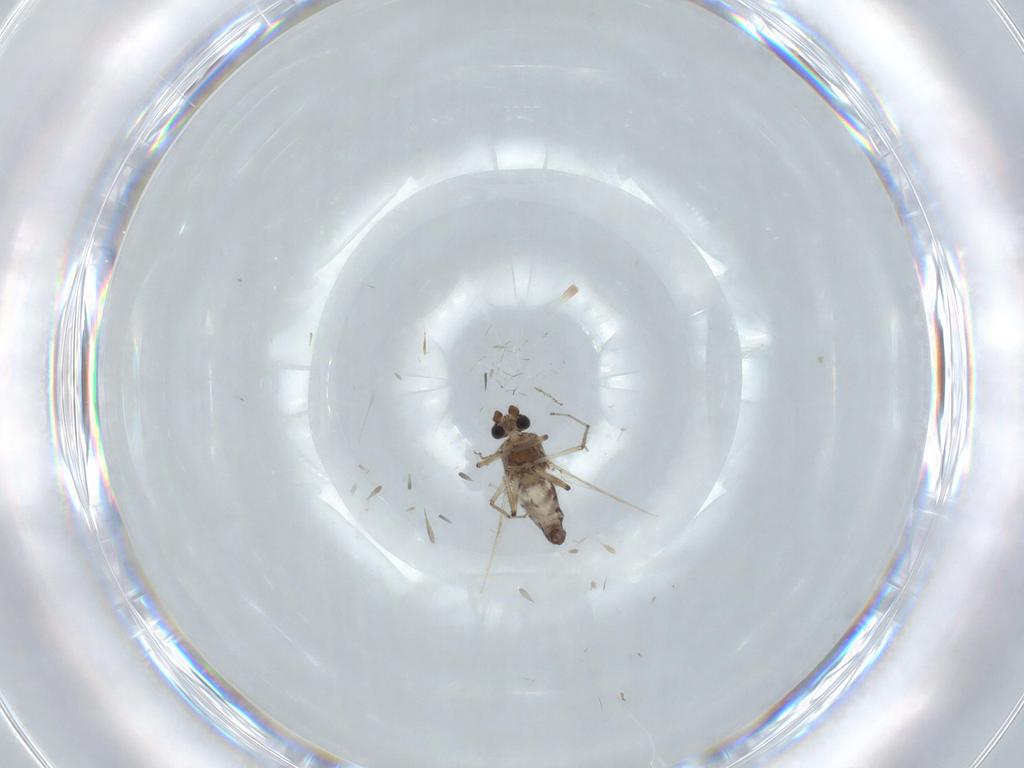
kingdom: Animalia
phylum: Arthropoda
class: Insecta
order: Diptera
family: Ceratopogonidae
